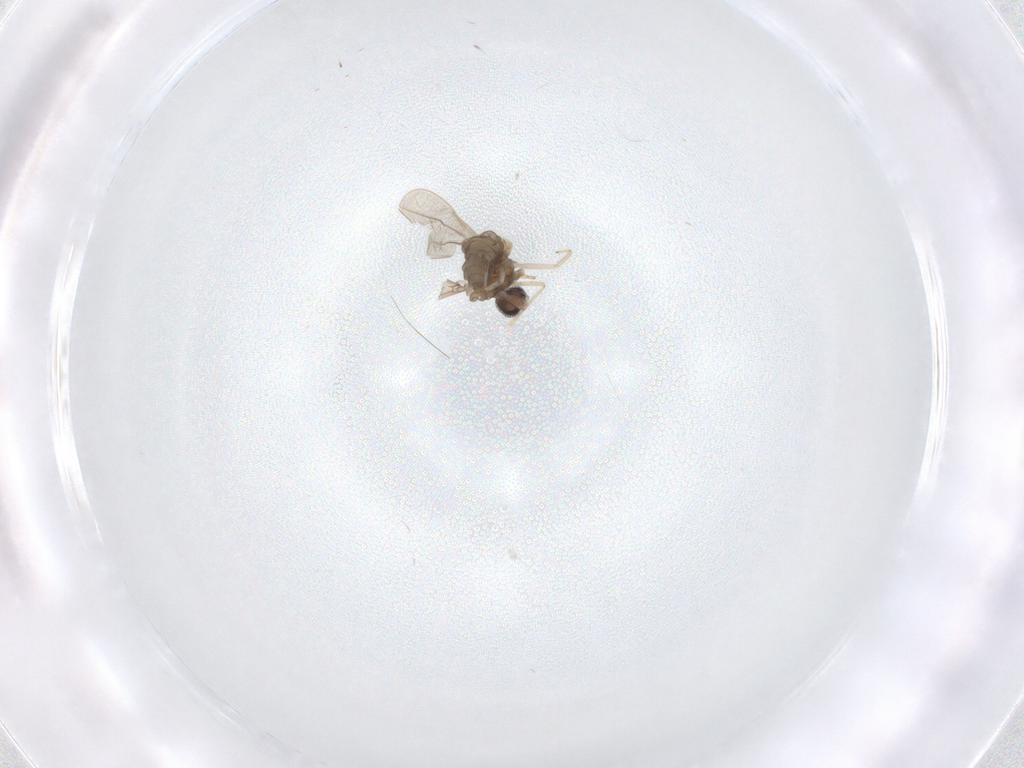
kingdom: Animalia
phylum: Arthropoda
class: Insecta
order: Diptera
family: Cecidomyiidae
